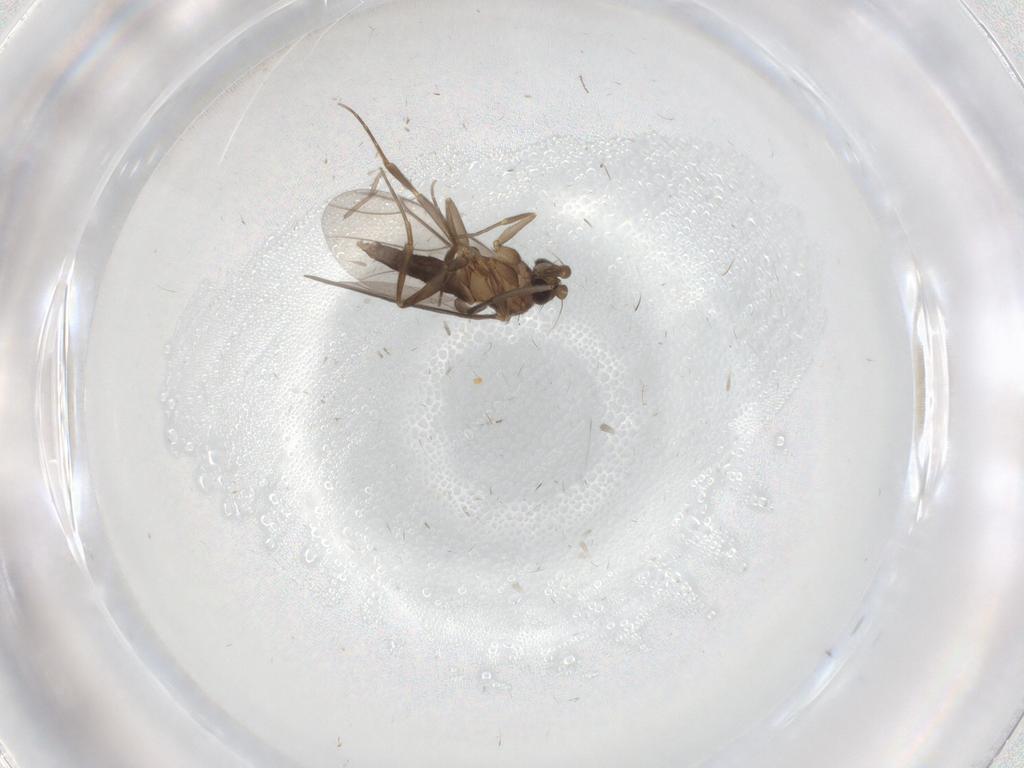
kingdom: Animalia
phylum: Arthropoda
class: Insecta
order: Diptera
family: Sciaridae
